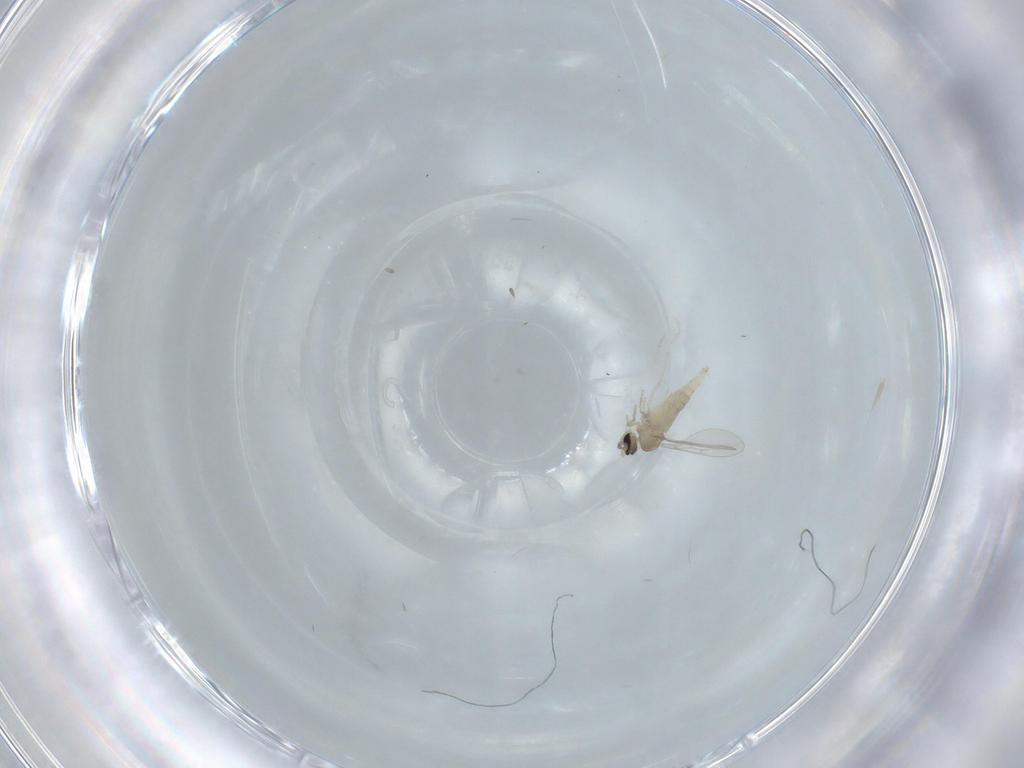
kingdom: Animalia
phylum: Arthropoda
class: Insecta
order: Diptera
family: Cecidomyiidae
